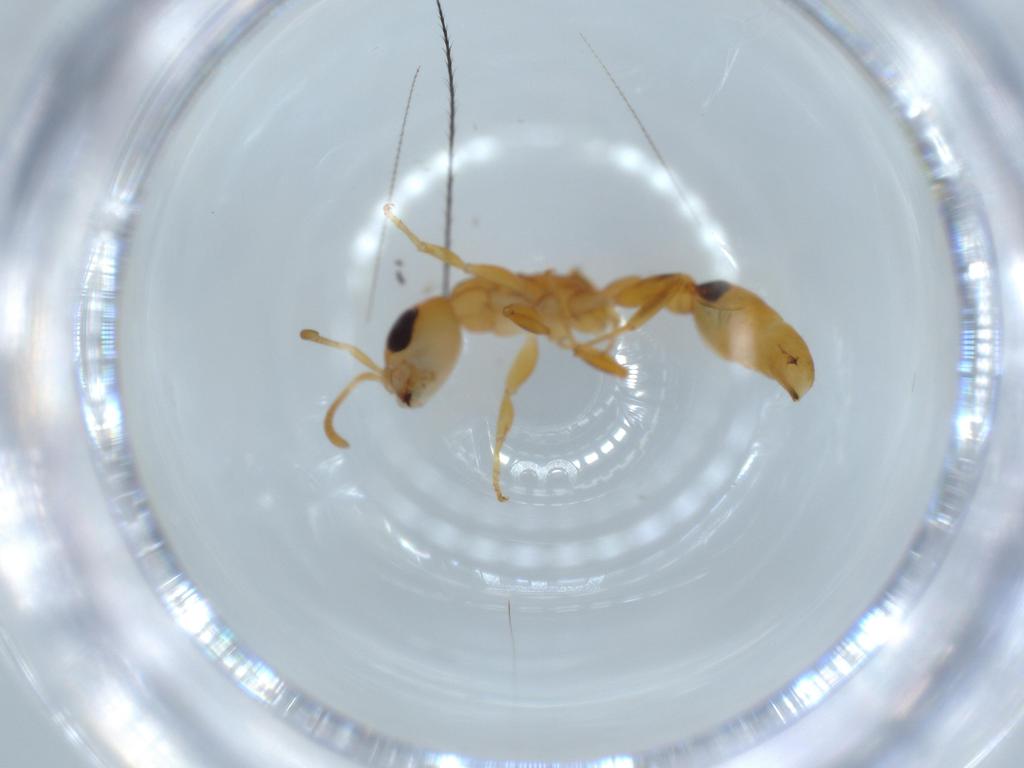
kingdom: Animalia
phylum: Arthropoda
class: Insecta
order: Hymenoptera
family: Formicidae
